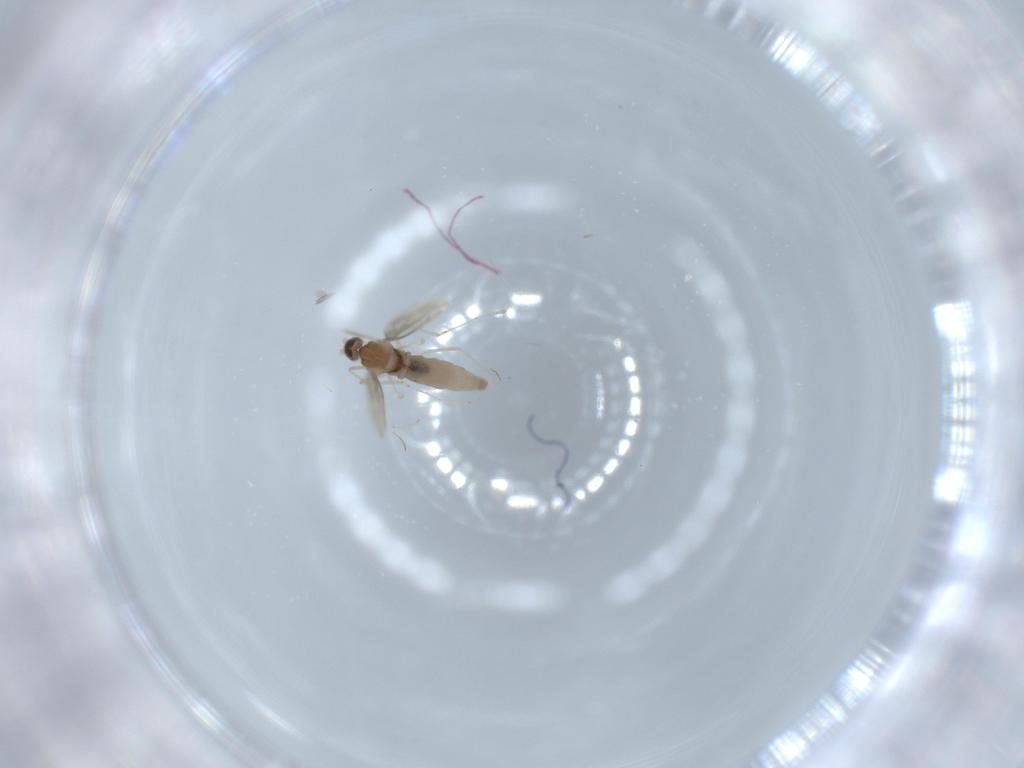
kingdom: Animalia
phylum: Arthropoda
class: Insecta
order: Diptera
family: Cecidomyiidae
